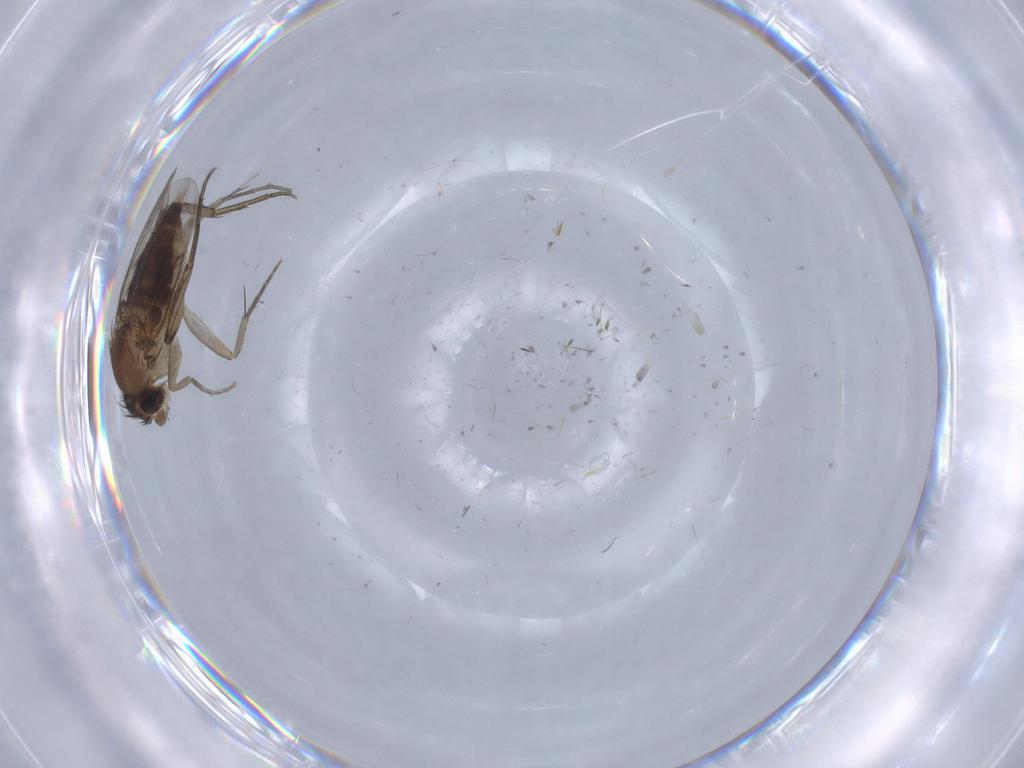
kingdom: Animalia
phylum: Arthropoda
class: Insecta
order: Diptera
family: Chironomidae
